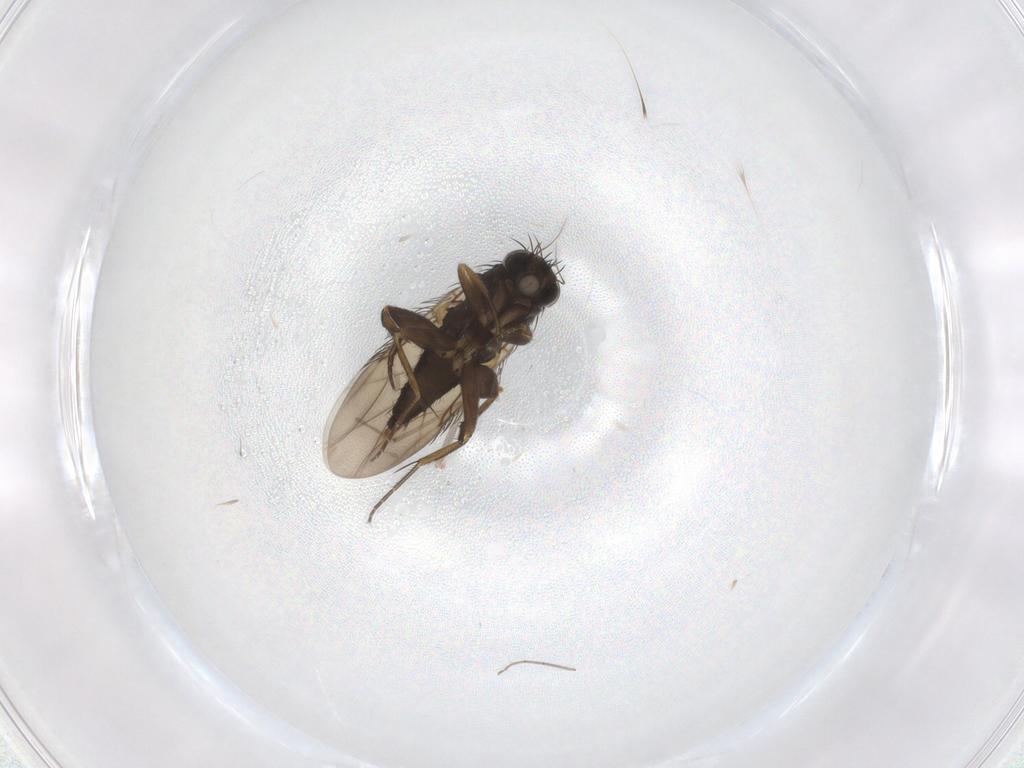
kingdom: Animalia
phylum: Arthropoda
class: Insecta
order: Diptera
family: Phoridae
